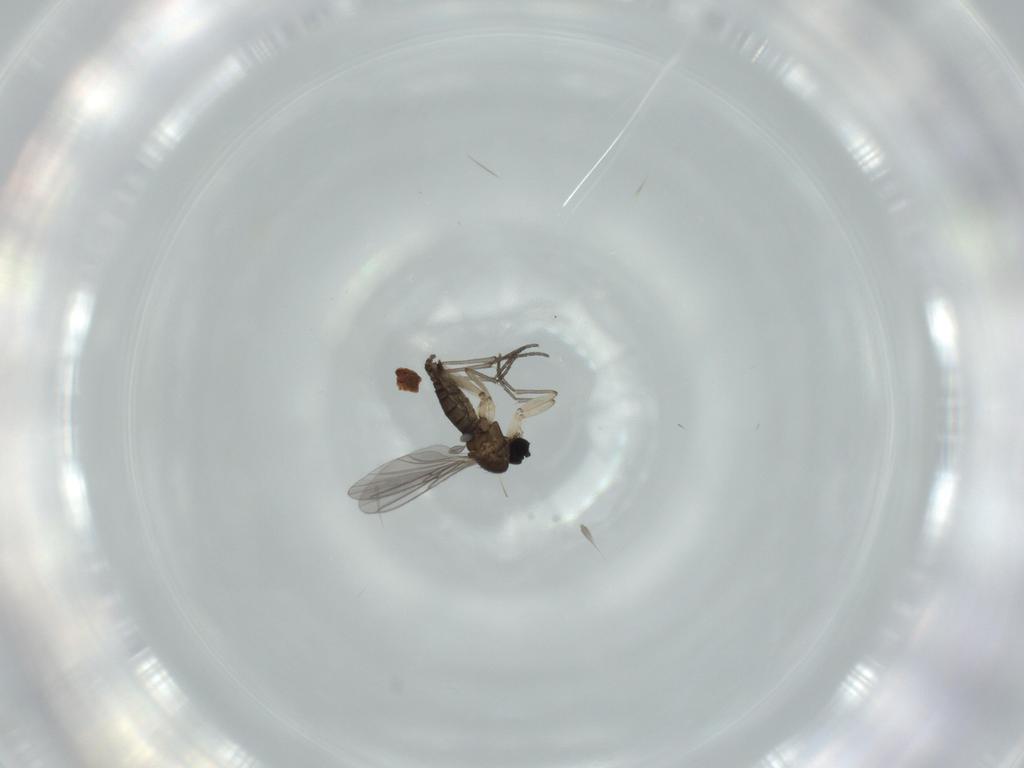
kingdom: Animalia
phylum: Arthropoda
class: Insecta
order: Diptera
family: Sciaridae
